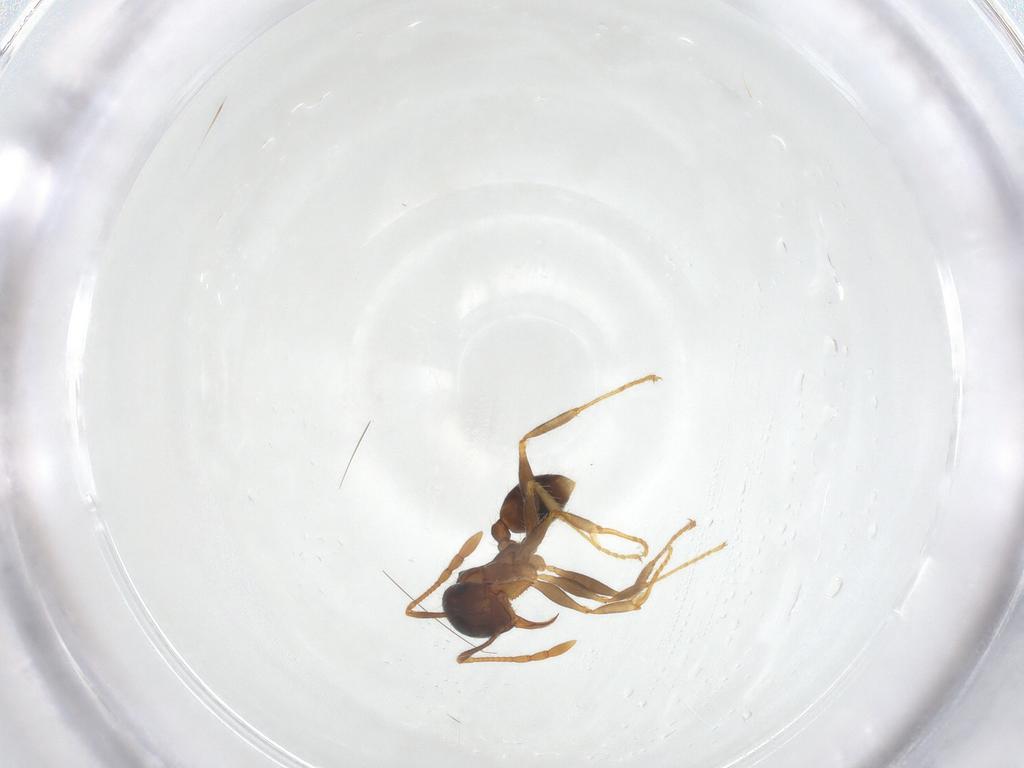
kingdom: Animalia
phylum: Arthropoda
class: Insecta
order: Hymenoptera
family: Formicidae
